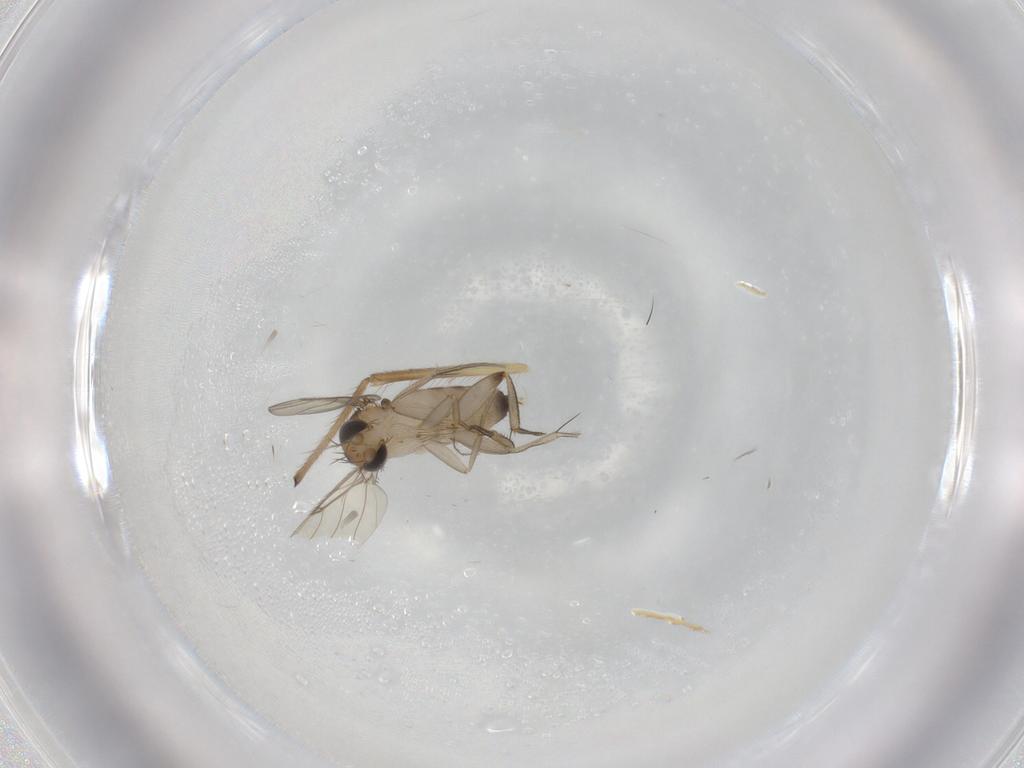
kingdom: Animalia
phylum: Arthropoda
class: Insecta
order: Diptera
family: Phoridae
